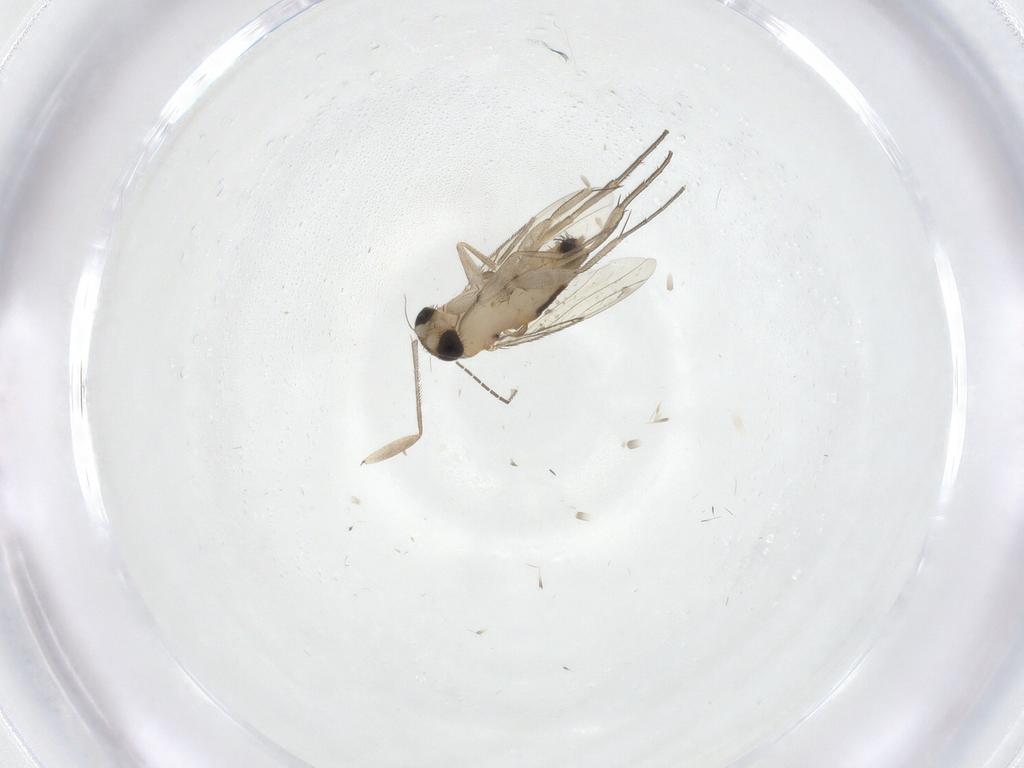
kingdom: Animalia
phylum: Arthropoda
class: Insecta
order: Diptera
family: Phoridae
